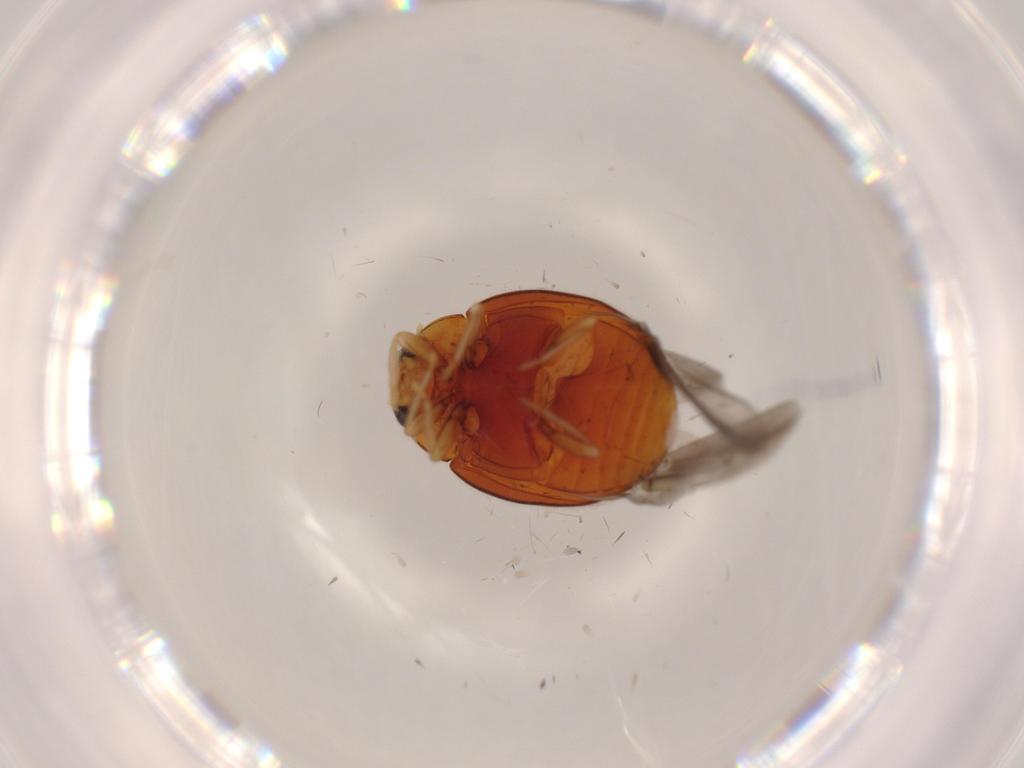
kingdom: Animalia
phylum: Arthropoda
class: Insecta
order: Coleoptera
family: Coccinellidae
